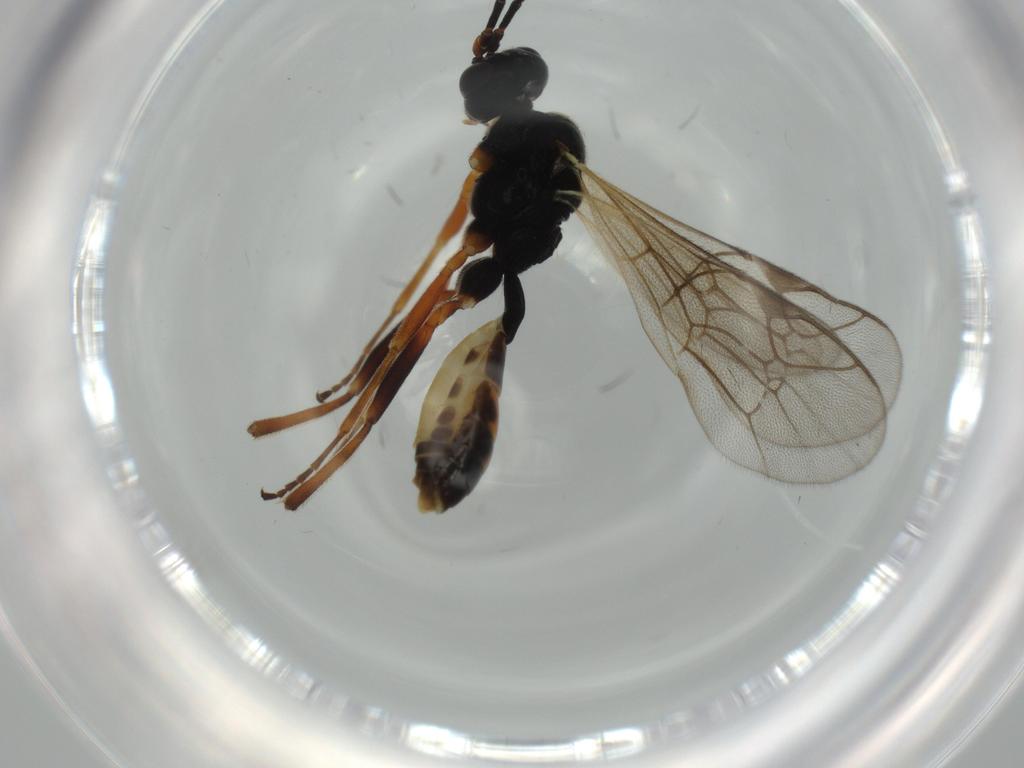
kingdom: Animalia
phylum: Arthropoda
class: Insecta
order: Hymenoptera
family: Ichneumonidae
